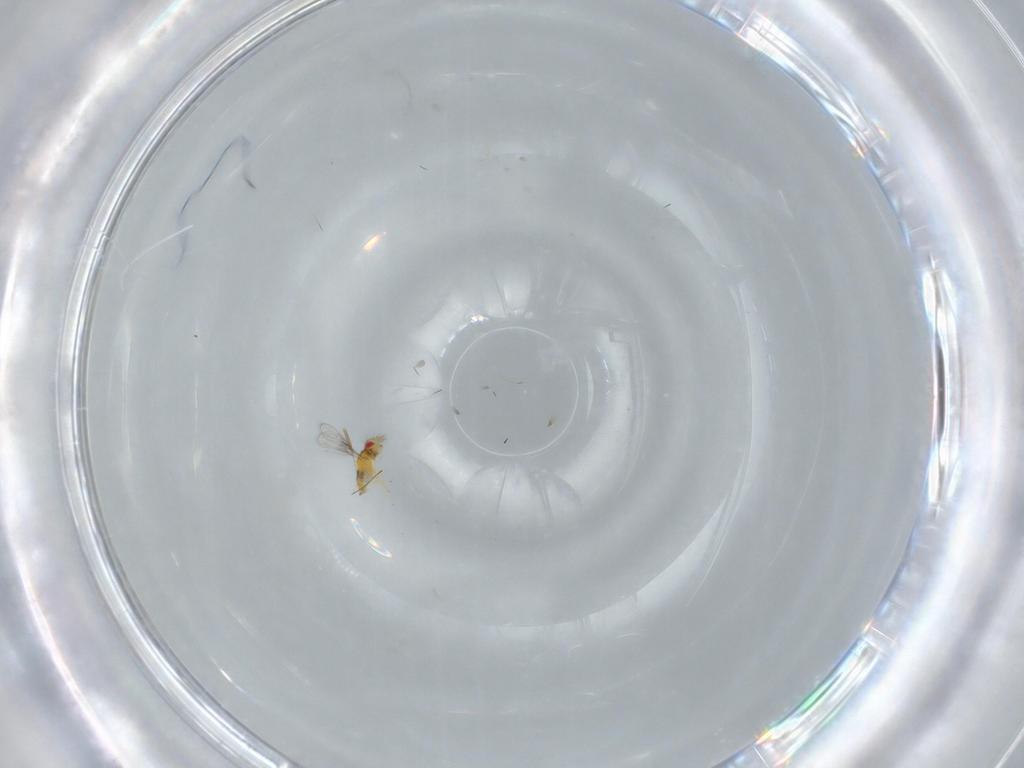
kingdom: Animalia
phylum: Arthropoda
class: Insecta
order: Hymenoptera
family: Trichogrammatidae
